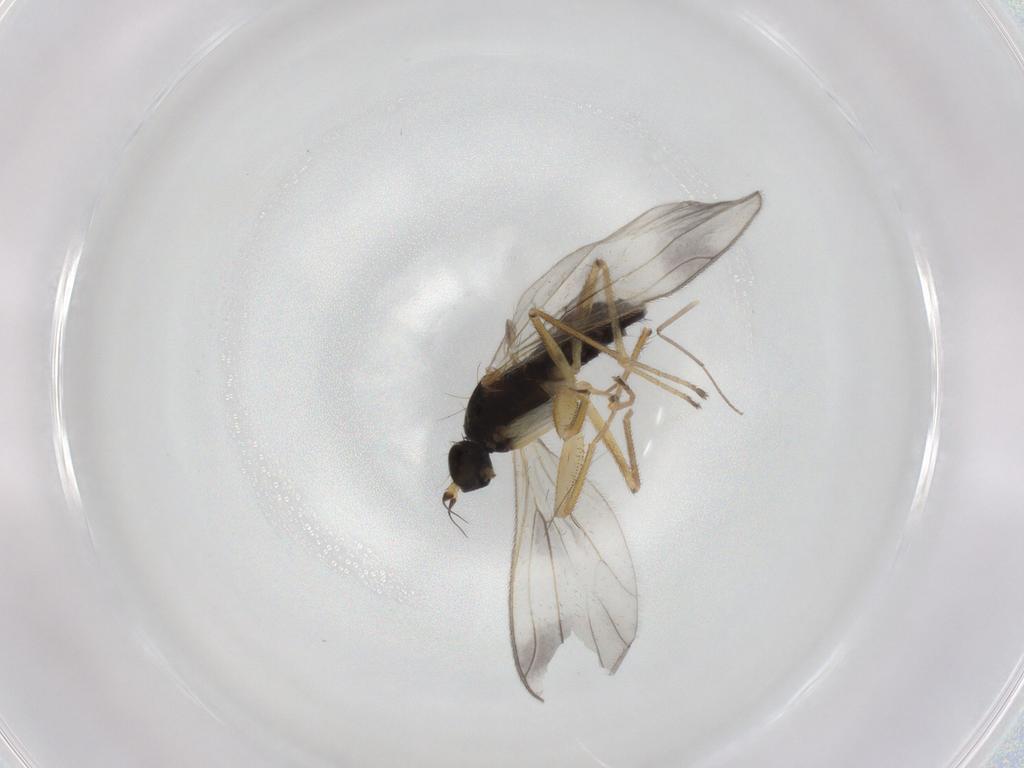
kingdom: Animalia
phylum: Arthropoda
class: Insecta
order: Diptera
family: Empididae
